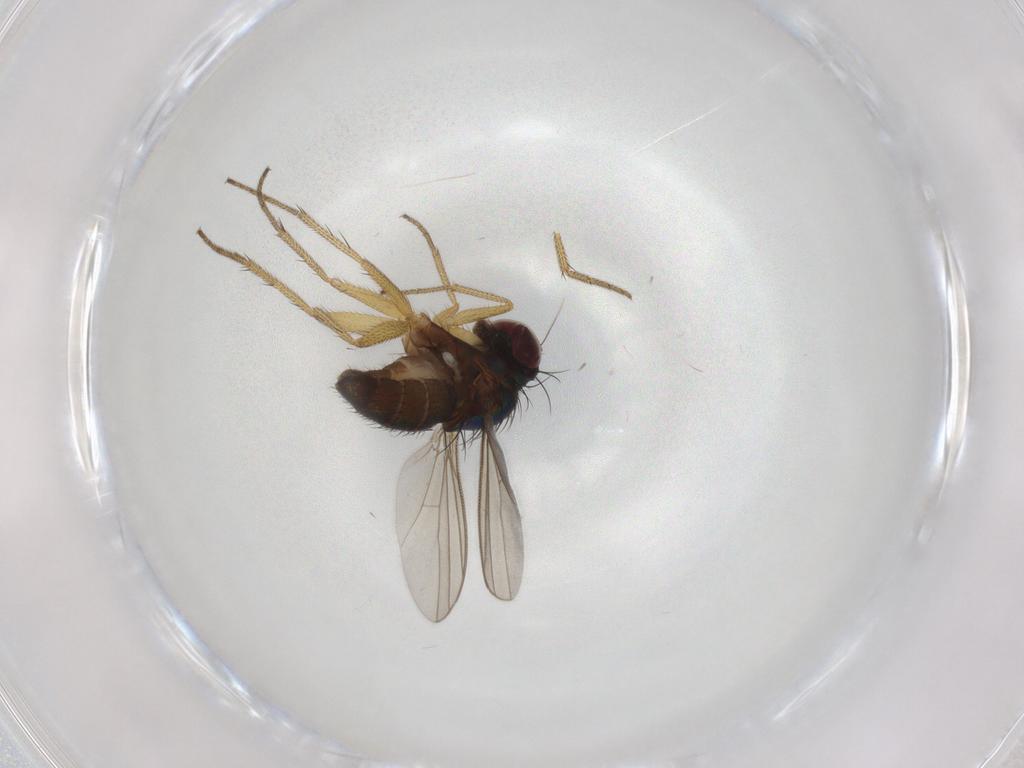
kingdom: Animalia
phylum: Arthropoda
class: Insecta
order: Diptera
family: Dolichopodidae
